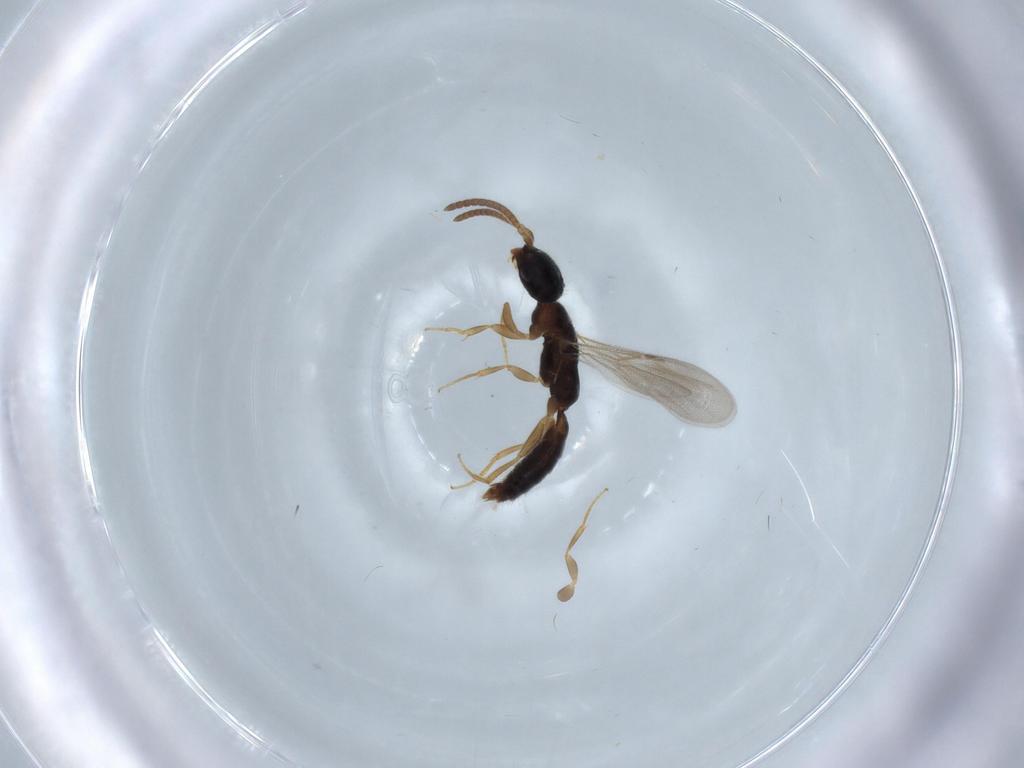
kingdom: Animalia
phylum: Arthropoda
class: Insecta
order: Hymenoptera
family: Bethylidae
